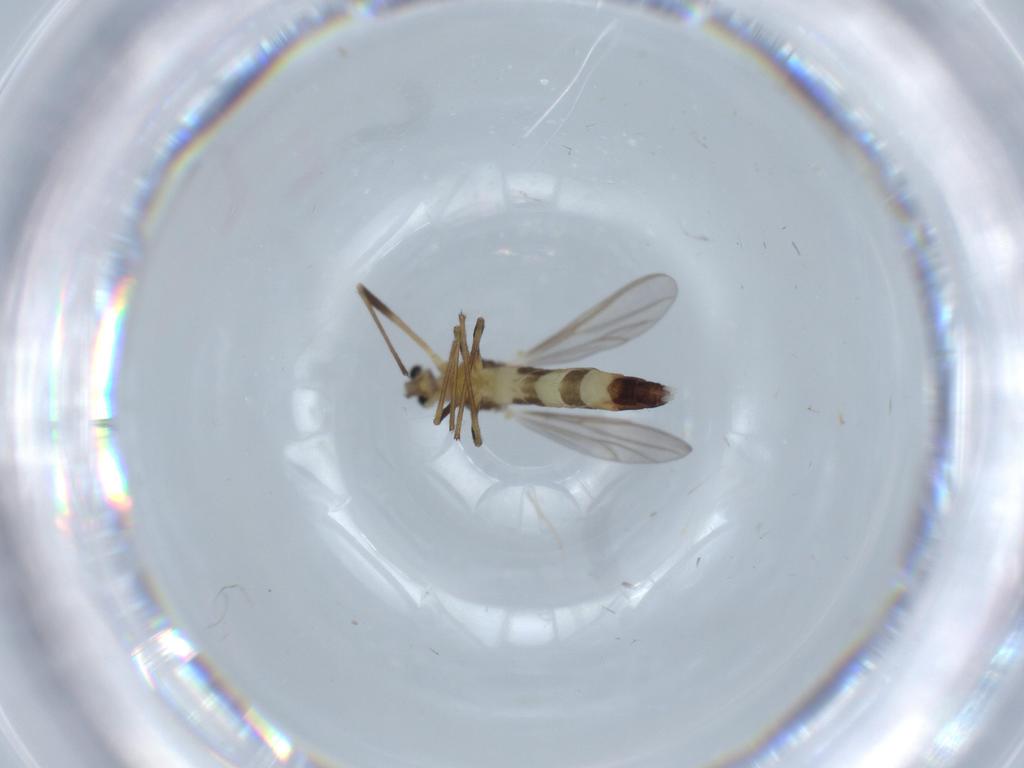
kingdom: Animalia
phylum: Arthropoda
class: Insecta
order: Diptera
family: Chironomidae
